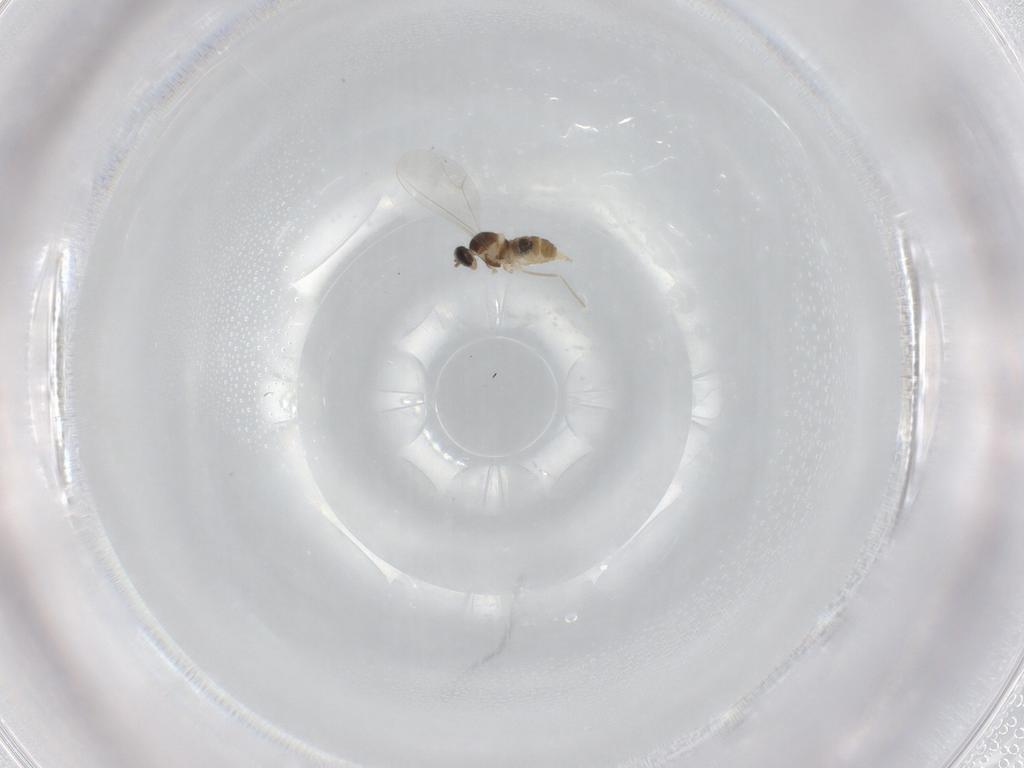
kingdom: Animalia
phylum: Arthropoda
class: Insecta
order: Diptera
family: Cecidomyiidae
